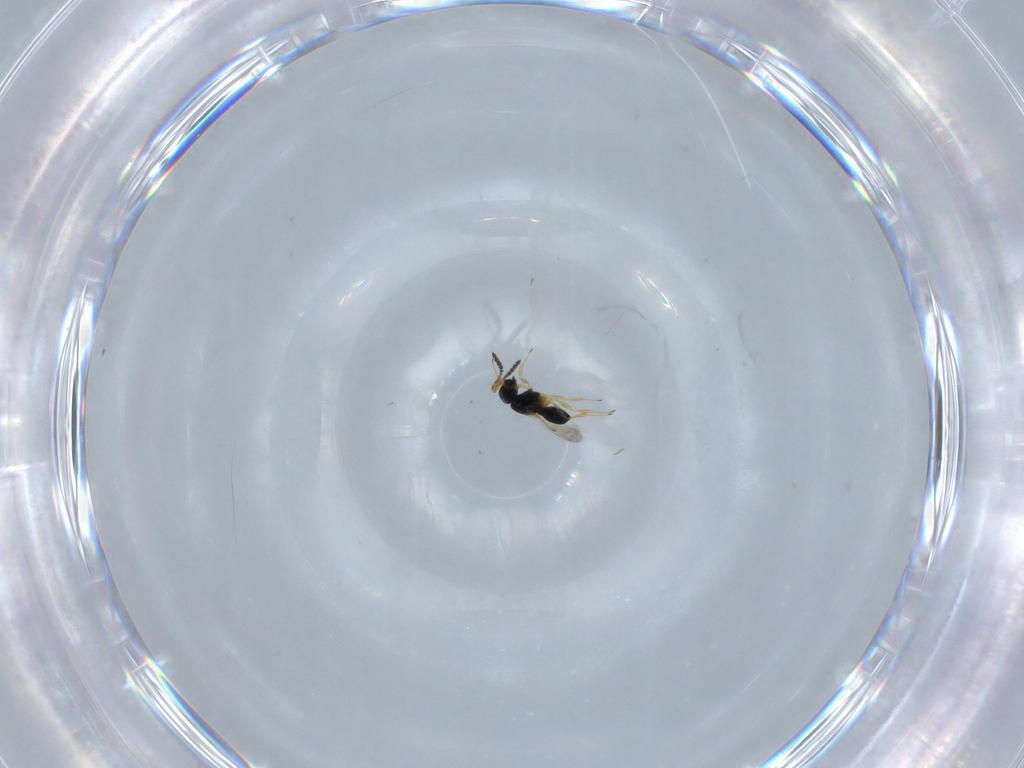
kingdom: Animalia
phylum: Arthropoda
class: Insecta
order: Hymenoptera
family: Scelionidae
